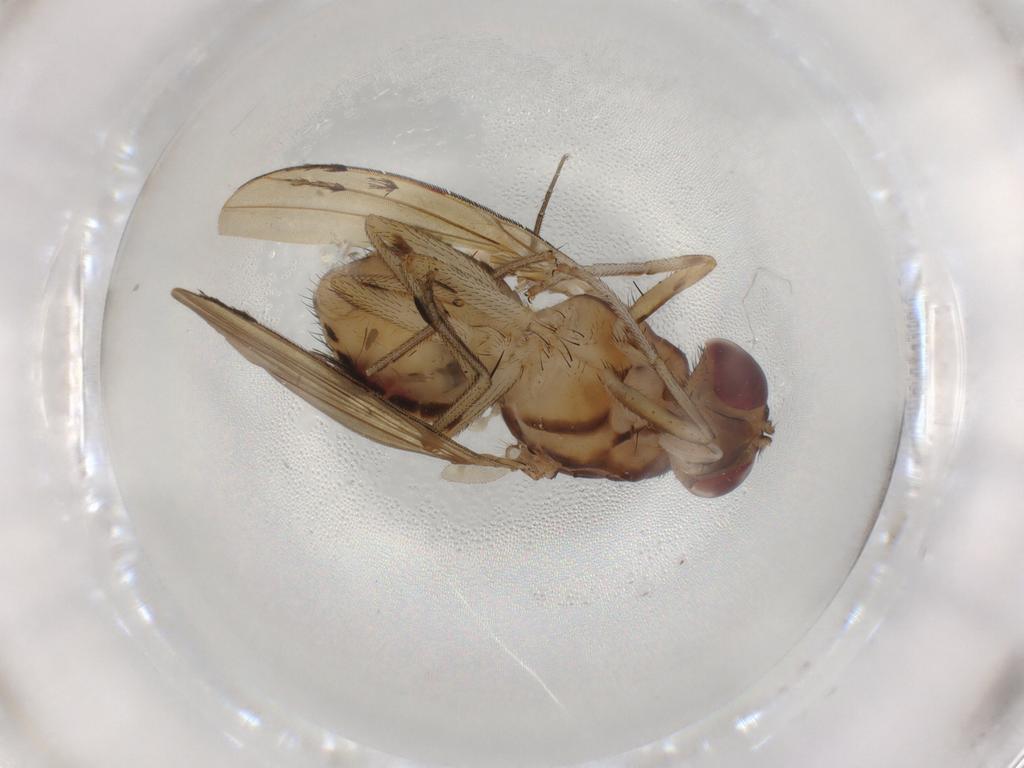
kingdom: Animalia
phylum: Arthropoda
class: Insecta
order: Diptera
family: Psychodidae
